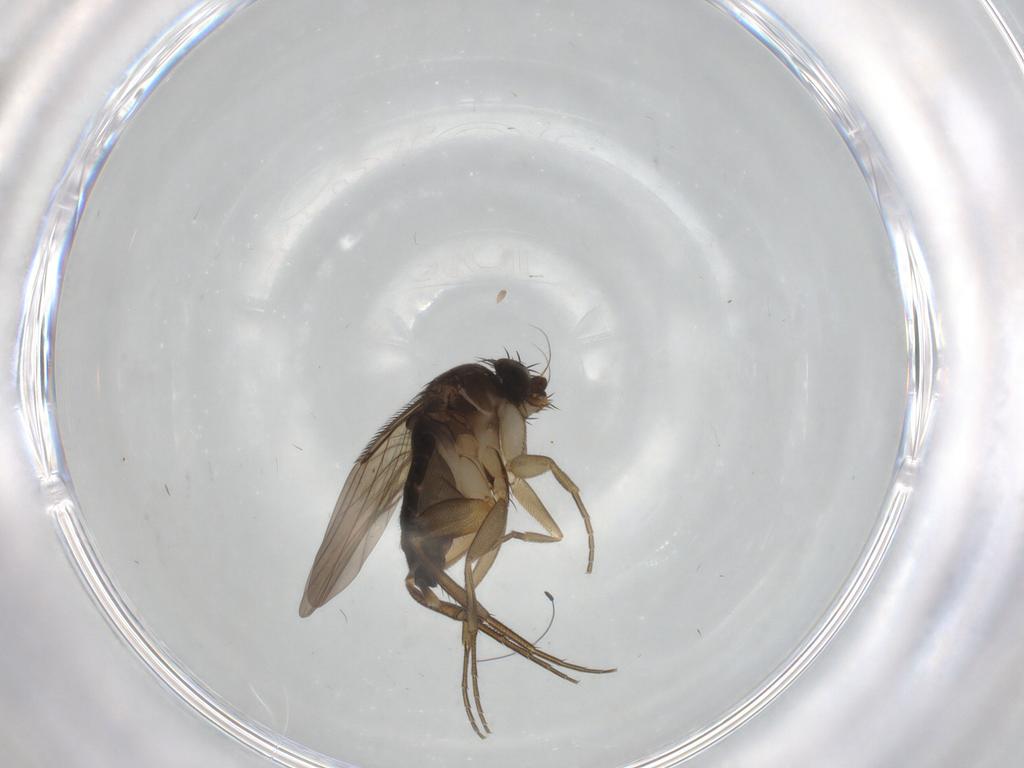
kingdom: Animalia
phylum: Arthropoda
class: Insecta
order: Diptera
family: Phoridae
